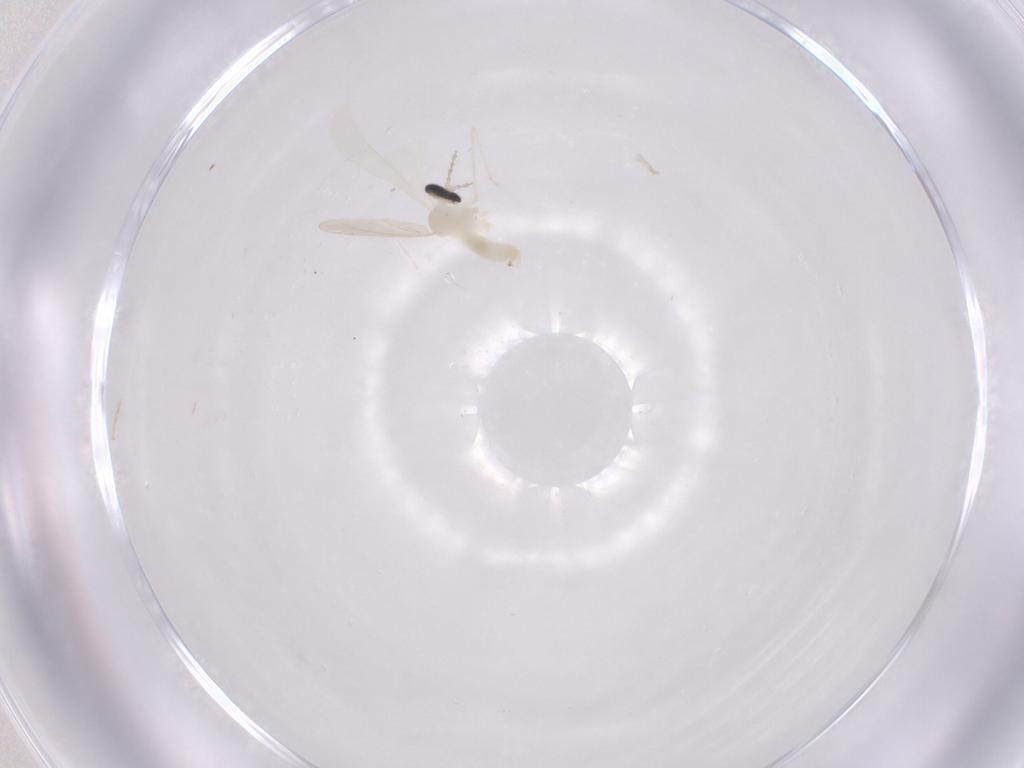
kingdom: Animalia
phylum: Arthropoda
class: Insecta
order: Diptera
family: Cecidomyiidae
